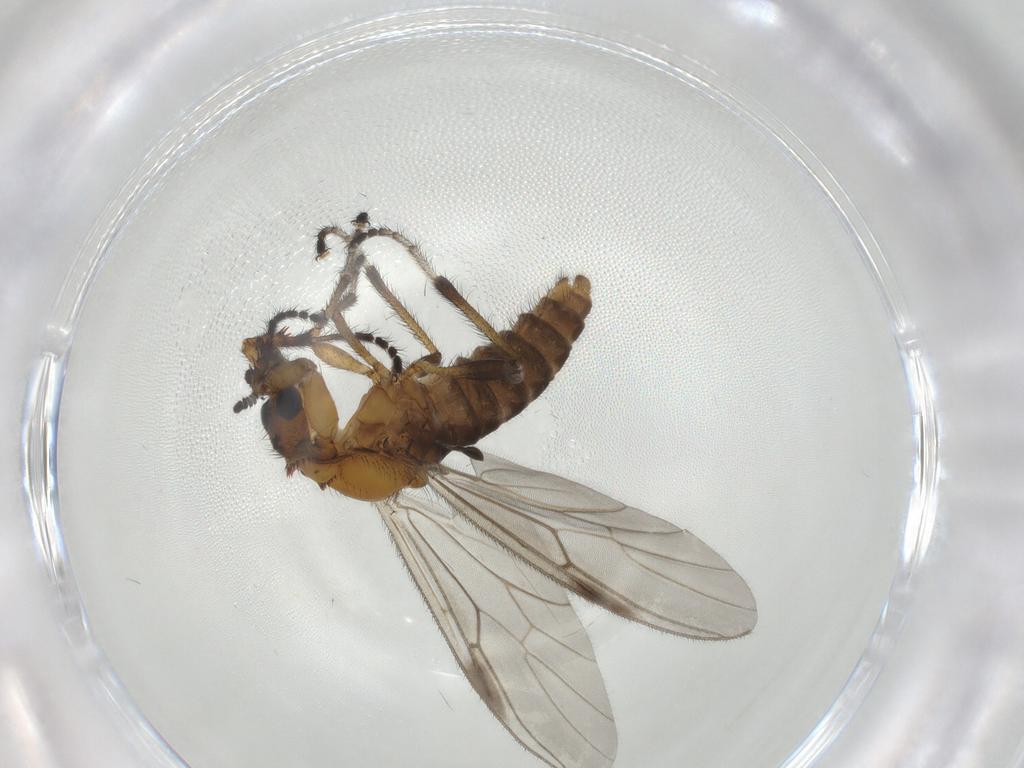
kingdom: Animalia
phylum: Arthropoda
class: Insecta
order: Diptera
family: Bibionidae
